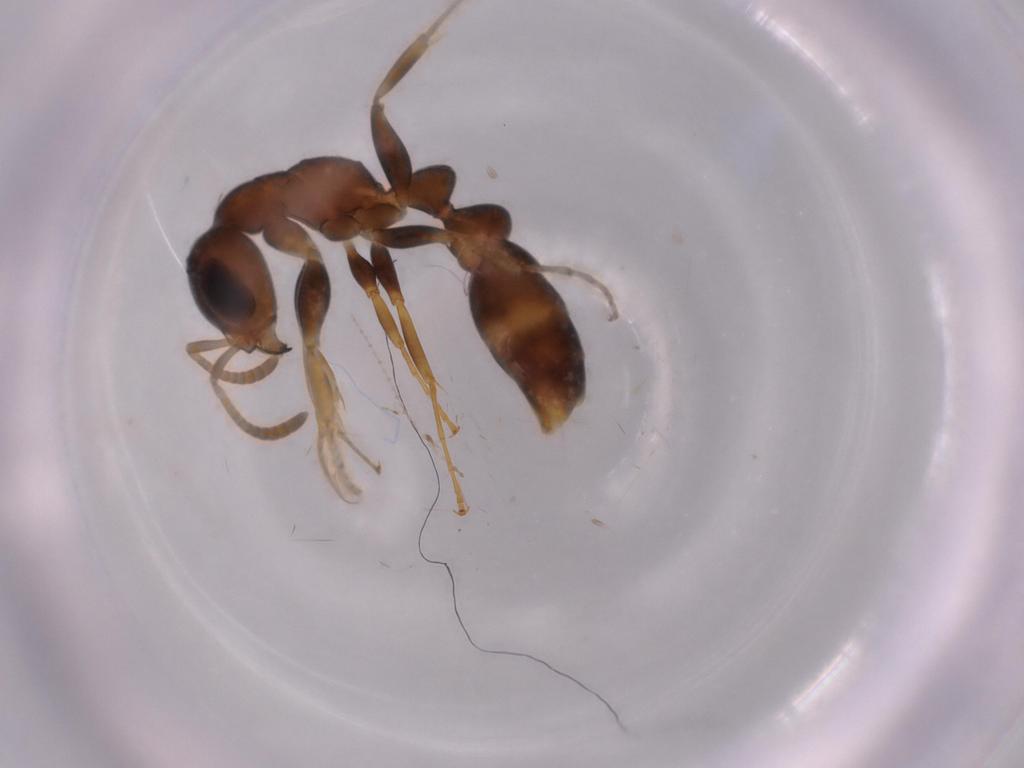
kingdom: Animalia
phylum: Arthropoda
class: Insecta
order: Hymenoptera
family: Formicidae
